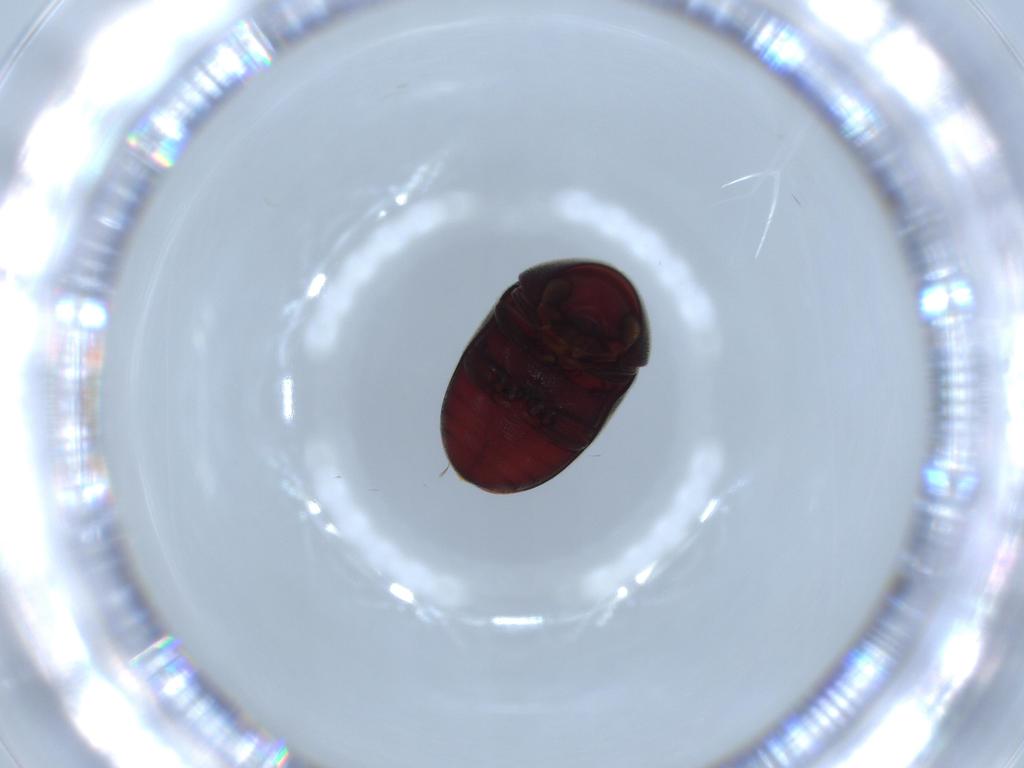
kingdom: Animalia
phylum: Arthropoda
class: Insecta
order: Coleoptera
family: Ptinidae
